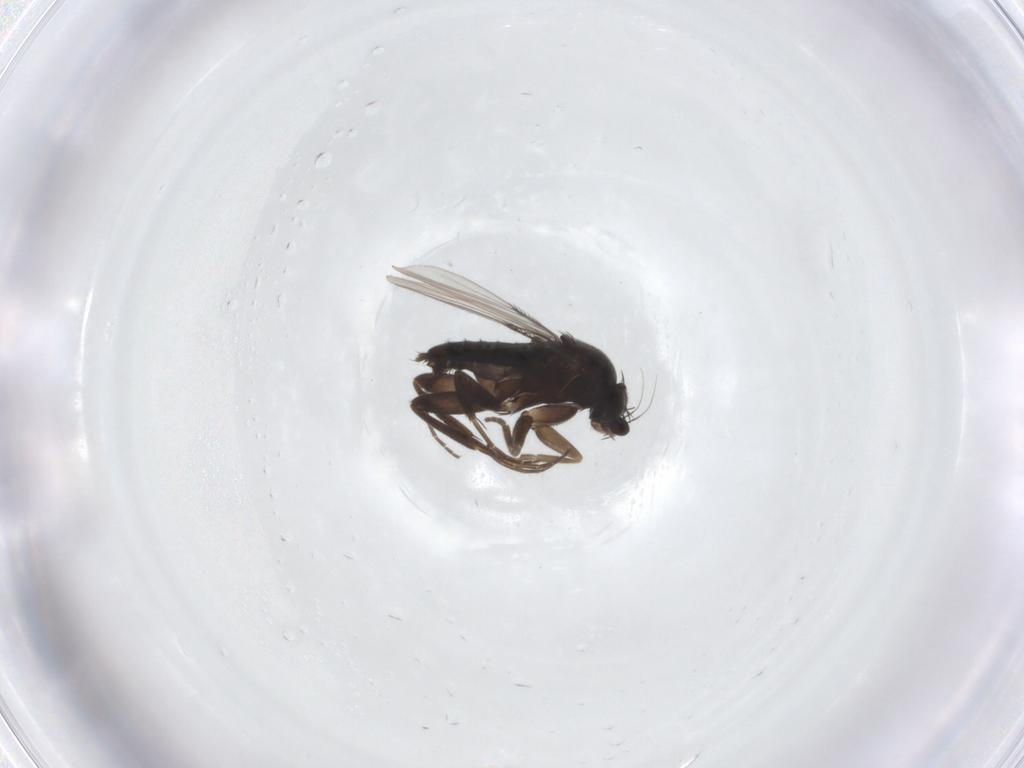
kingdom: Animalia
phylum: Arthropoda
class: Insecta
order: Diptera
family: Phoridae
